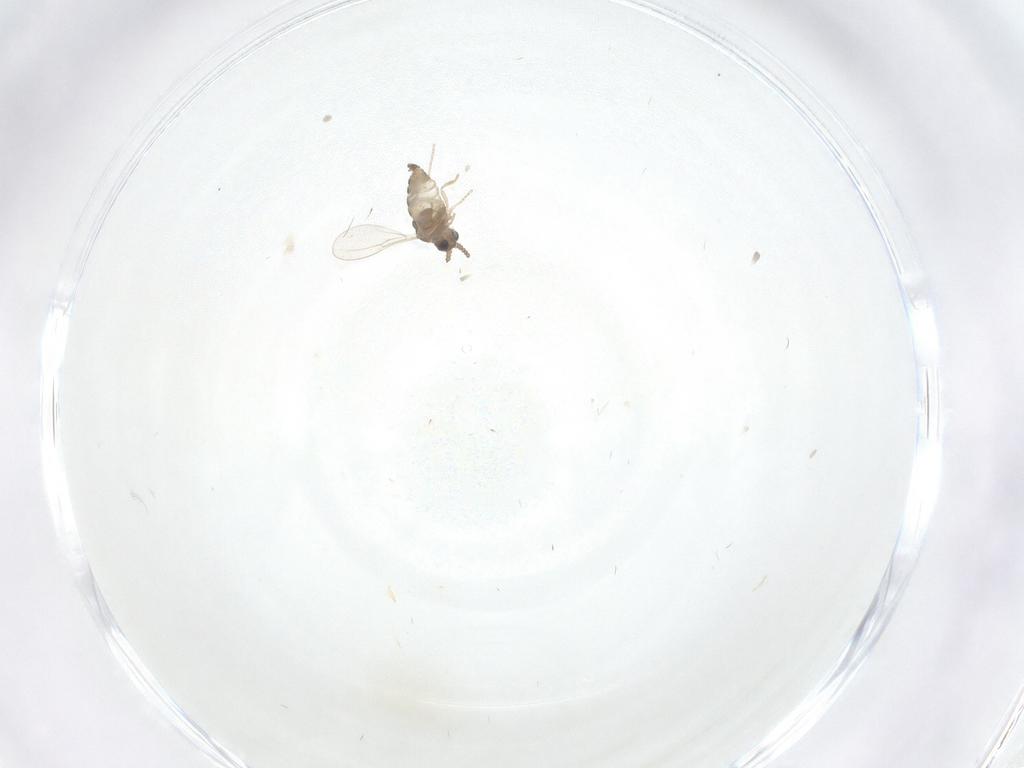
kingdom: Animalia
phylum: Arthropoda
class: Insecta
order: Diptera
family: Cecidomyiidae
